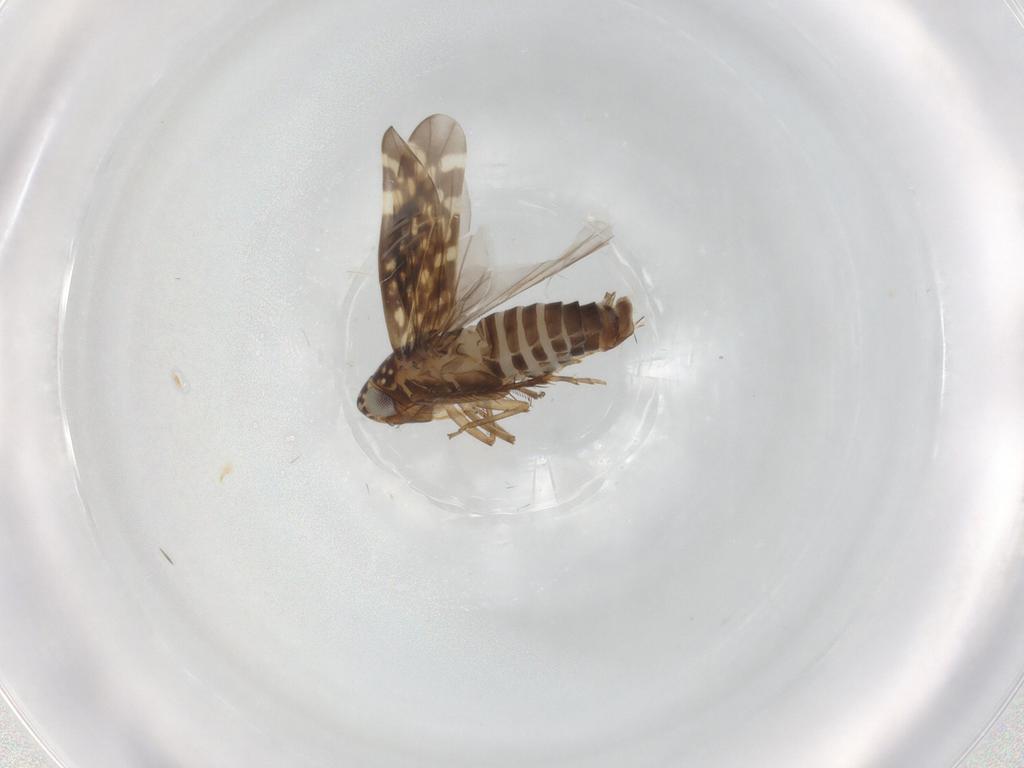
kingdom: Animalia
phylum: Arthropoda
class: Insecta
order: Hemiptera
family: Cicadellidae
